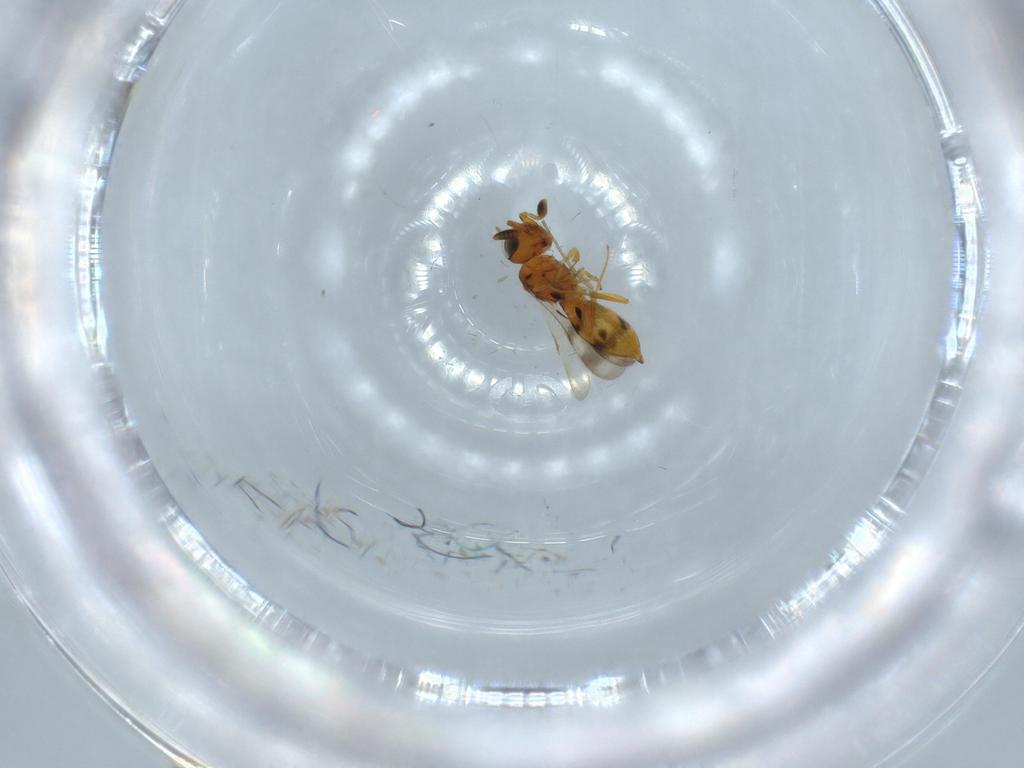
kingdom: Animalia
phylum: Arthropoda
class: Insecta
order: Hymenoptera
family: Scelionidae
